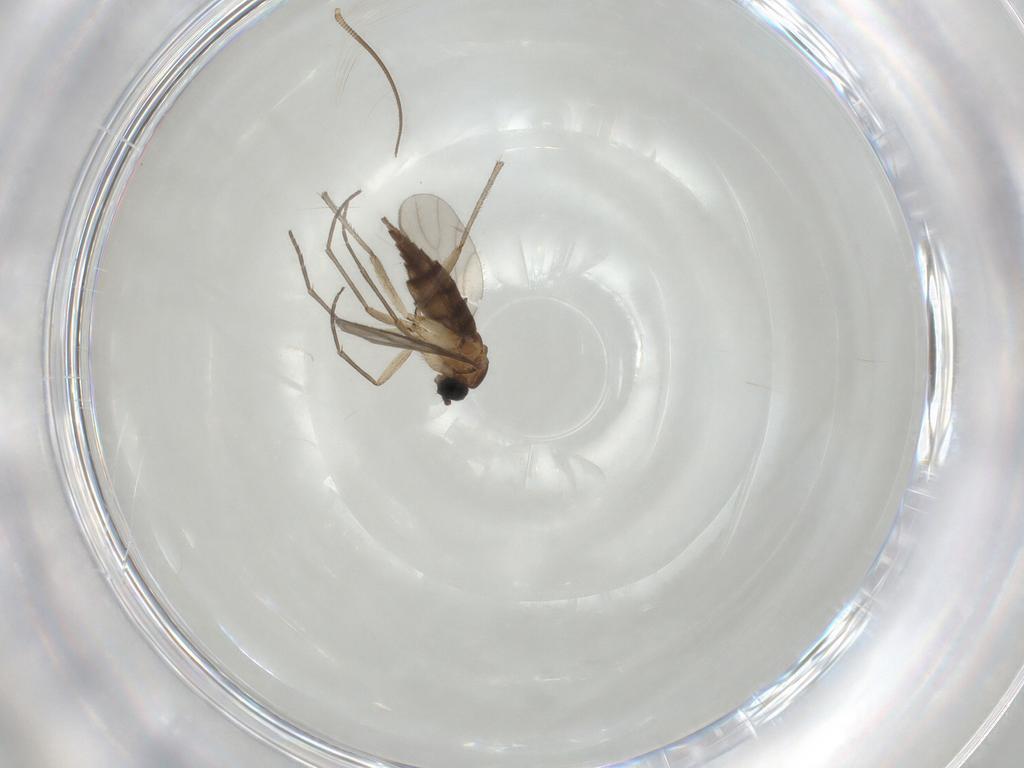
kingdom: Animalia
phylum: Arthropoda
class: Insecta
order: Diptera
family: Sciaridae
